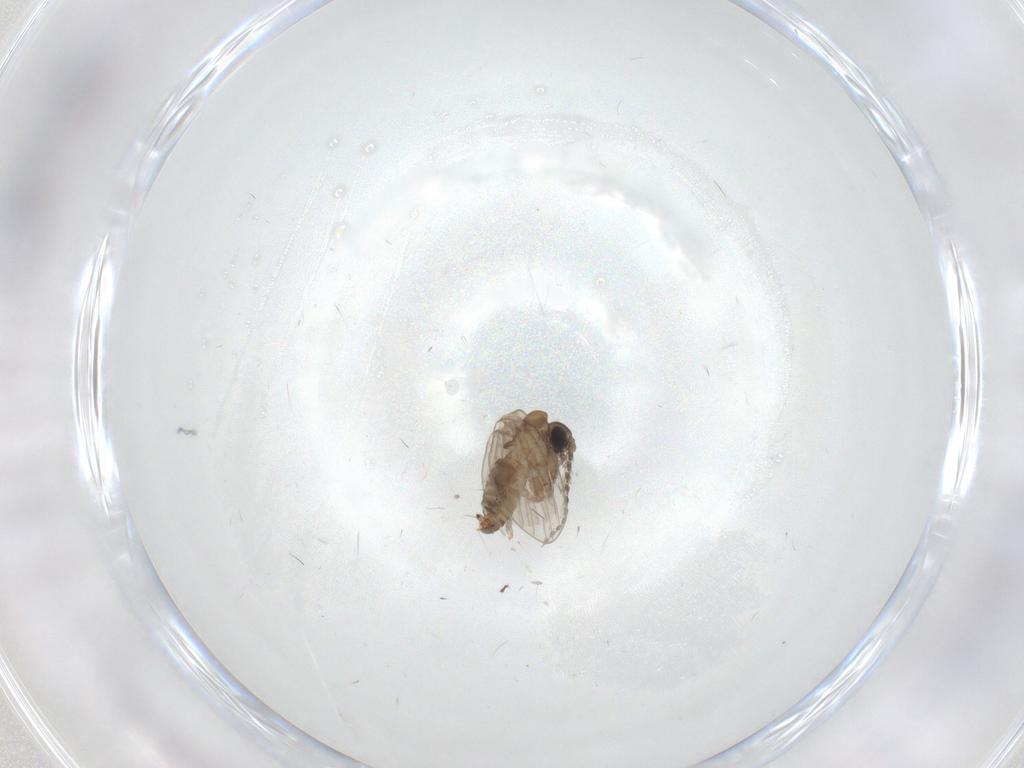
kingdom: Animalia
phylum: Arthropoda
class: Insecta
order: Diptera
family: Psychodidae
